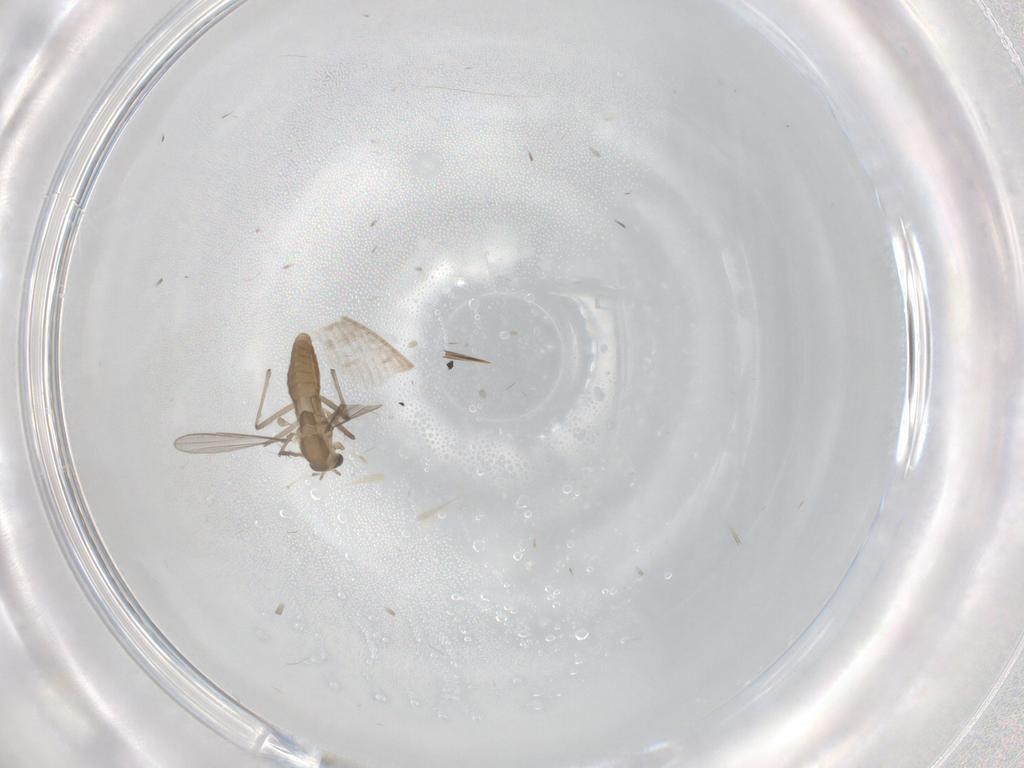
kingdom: Animalia
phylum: Arthropoda
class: Insecta
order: Diptera
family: Chironomidae
